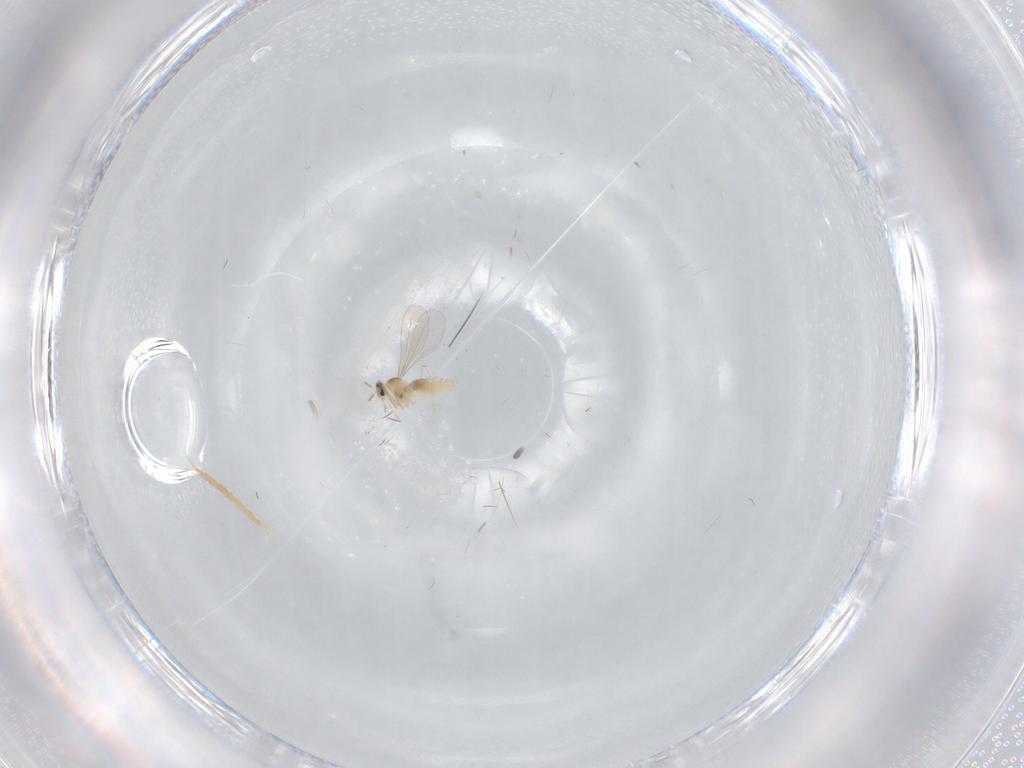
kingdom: Animalia
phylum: Arthropoda
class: Insecta
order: Diptera
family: Cecidomyiidae
